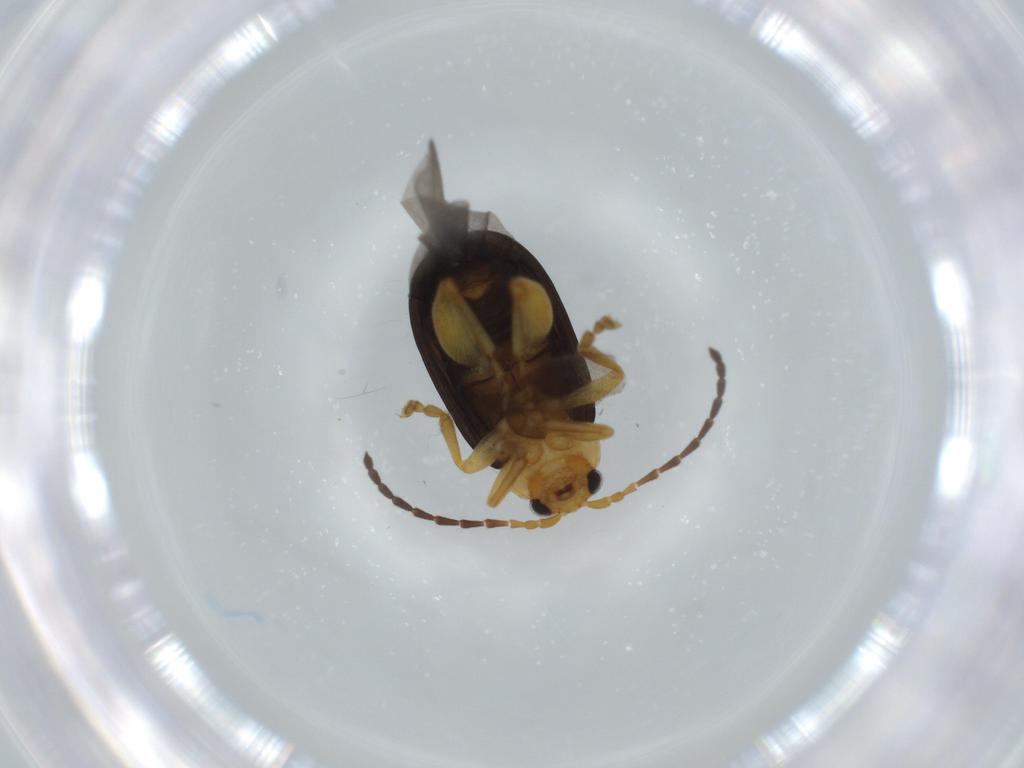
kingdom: Animalia
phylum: Arthropoda
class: Insecta
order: Coleoptera
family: Chrysomelidae
